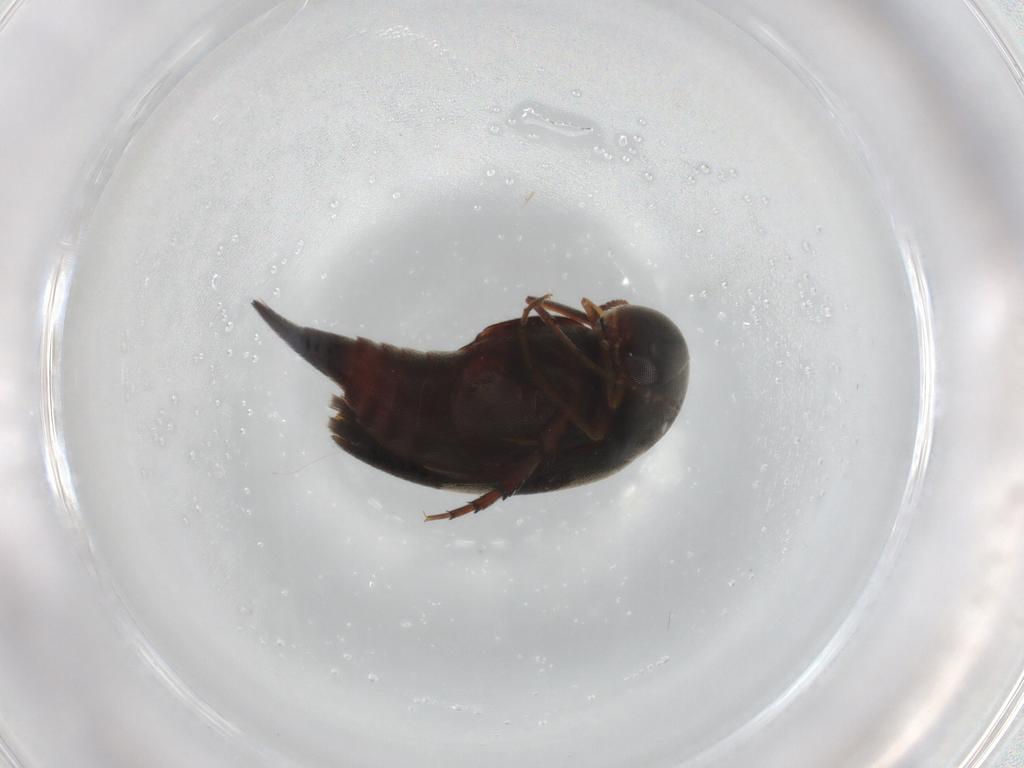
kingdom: Animalia
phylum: Arthropoda
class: Insecta
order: Coleoptera
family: Mordellidae
